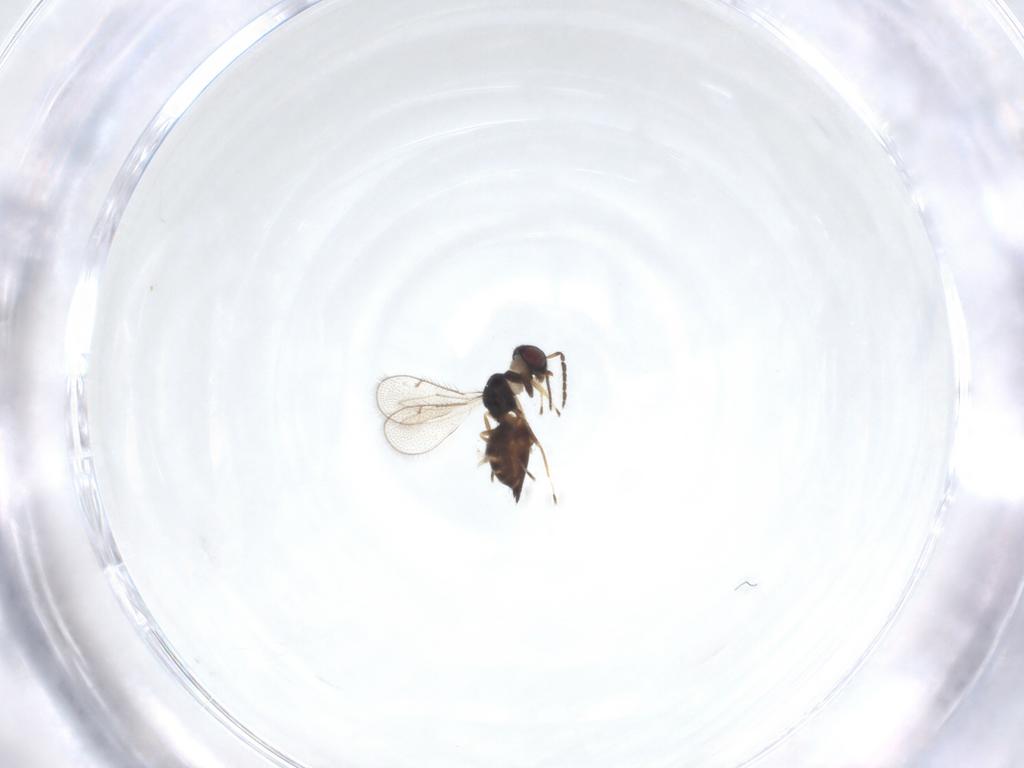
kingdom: Animalia
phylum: Arthropoda
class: Insecta
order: Hymenoptera
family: Eulophidae
